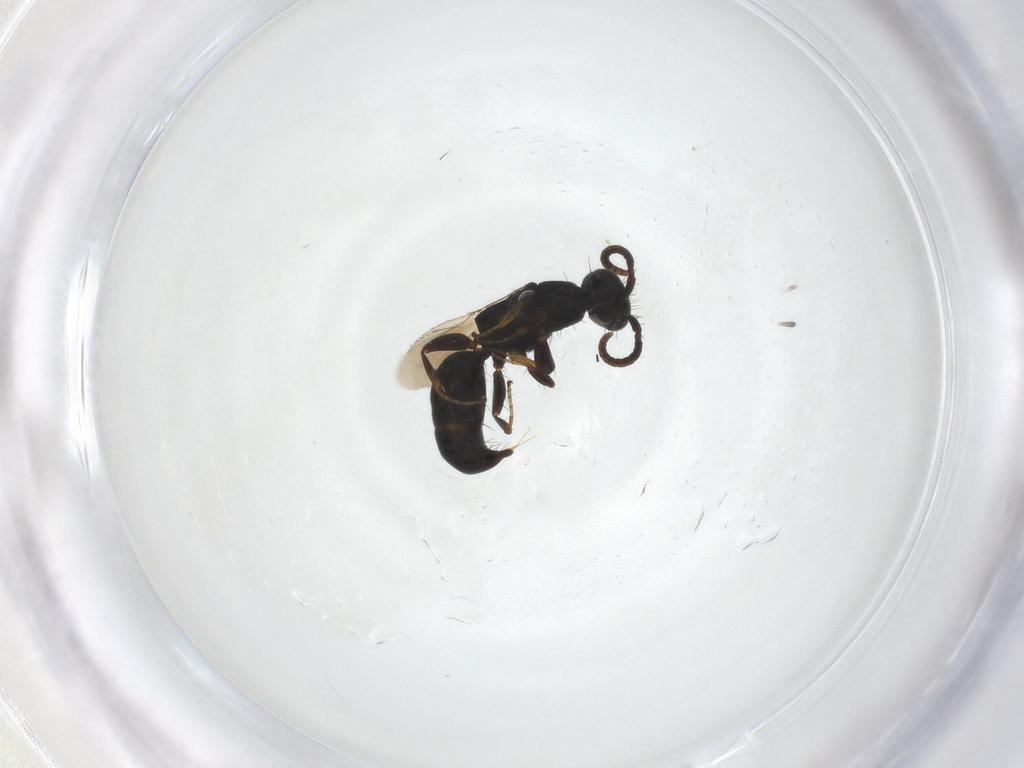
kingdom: Animalia
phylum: Arthropoda
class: Insecta
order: Hymenoptera
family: Bethylidae
